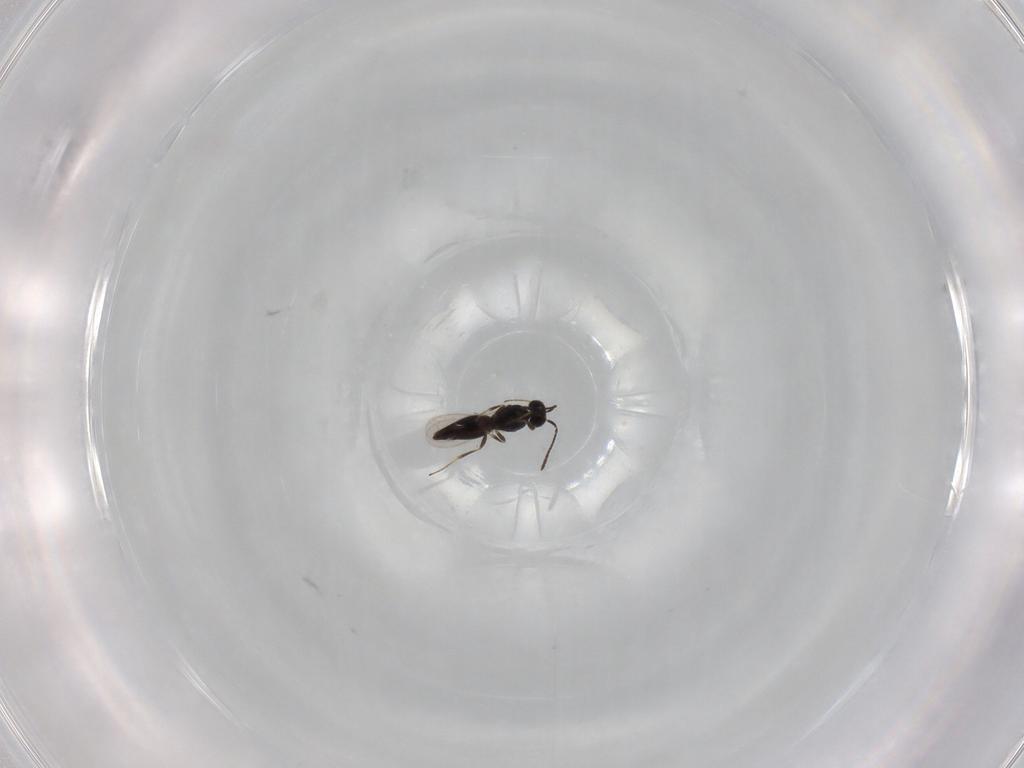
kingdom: Animalia
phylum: Arthropoda
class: Insecta
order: Hymenoptera
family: Scelionidae
